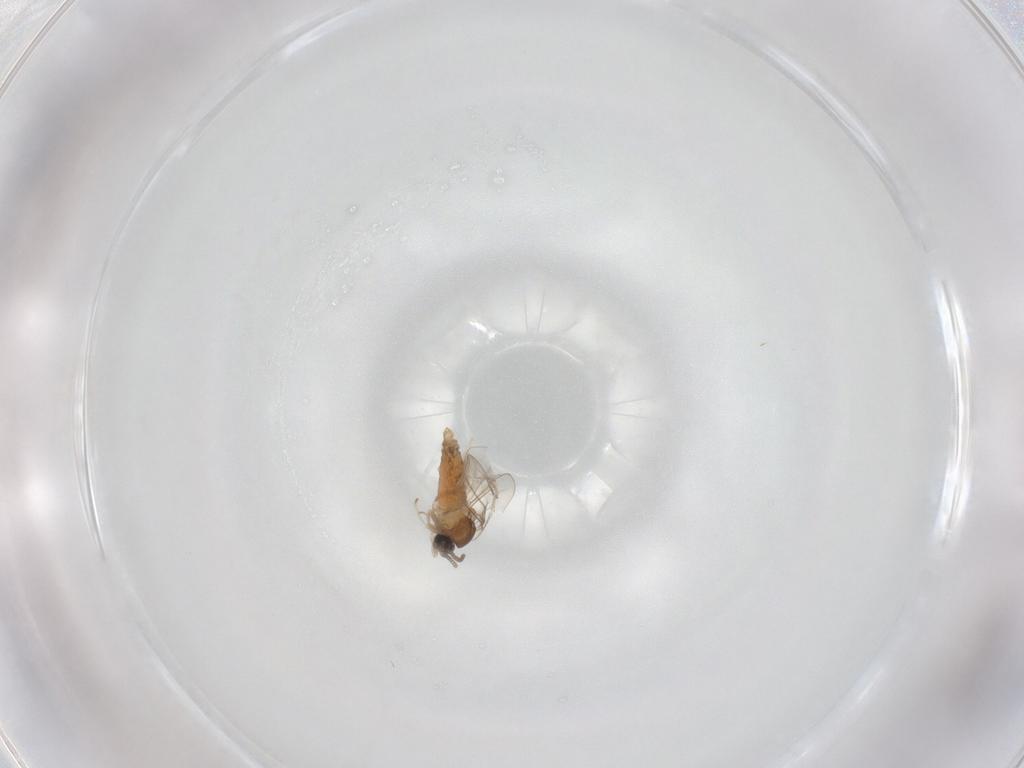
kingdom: Animalia
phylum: Arthropoda
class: Insecta
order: Diptera
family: Cecidomyiidae
